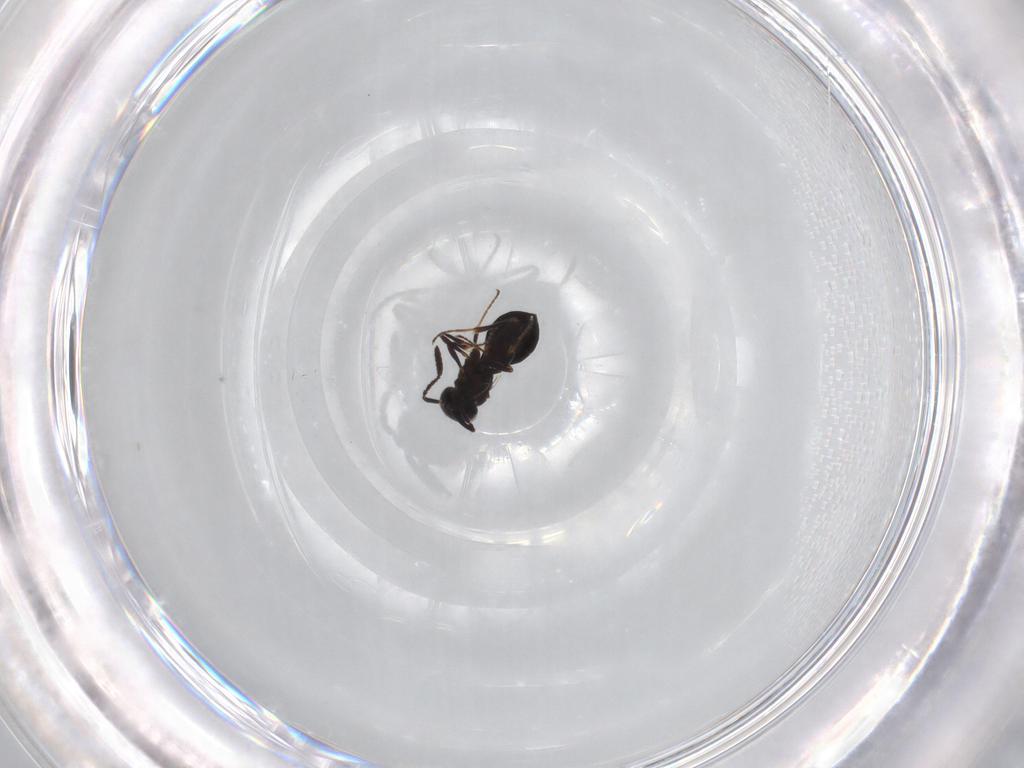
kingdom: Animalia
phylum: Arthropoda
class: Insecta
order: Hymenoptera
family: Scelionidae
